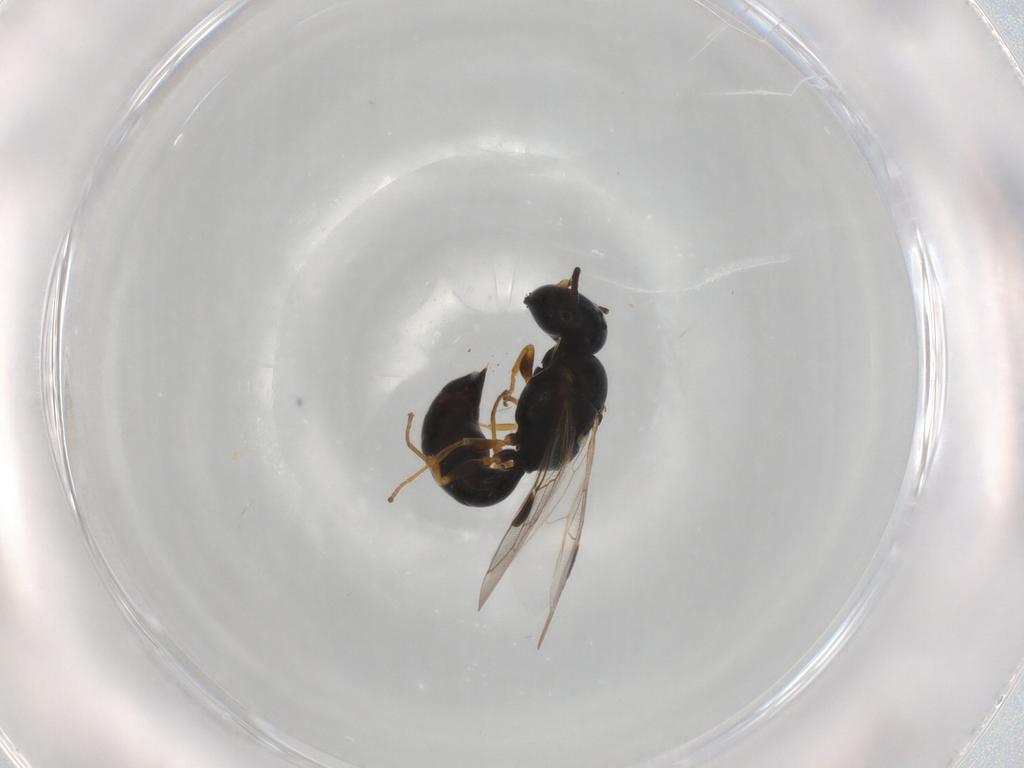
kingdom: Animalia
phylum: Arthropoda
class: Insecta
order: Hymenoptera
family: Crabronidae
